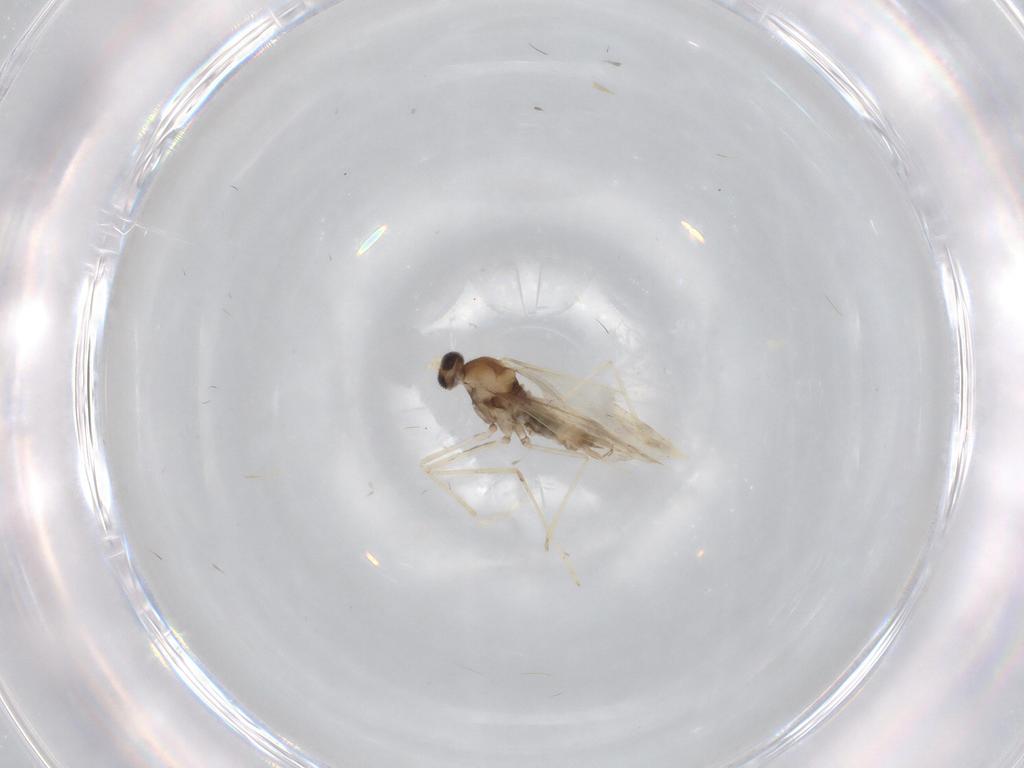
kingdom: Animalia
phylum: Arthropoda
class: Insecta
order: Diptera
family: Cecidomyiidae
